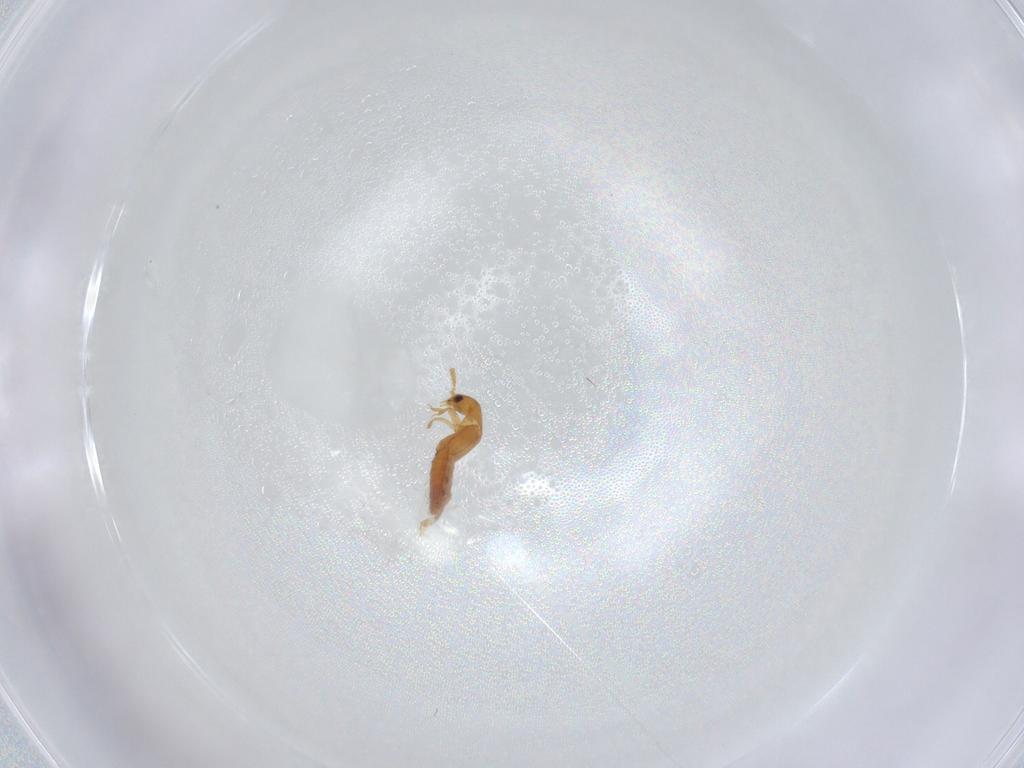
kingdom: Animalia
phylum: Arthropoda
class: Insecta
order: Coleoptera
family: Staphylinidae
